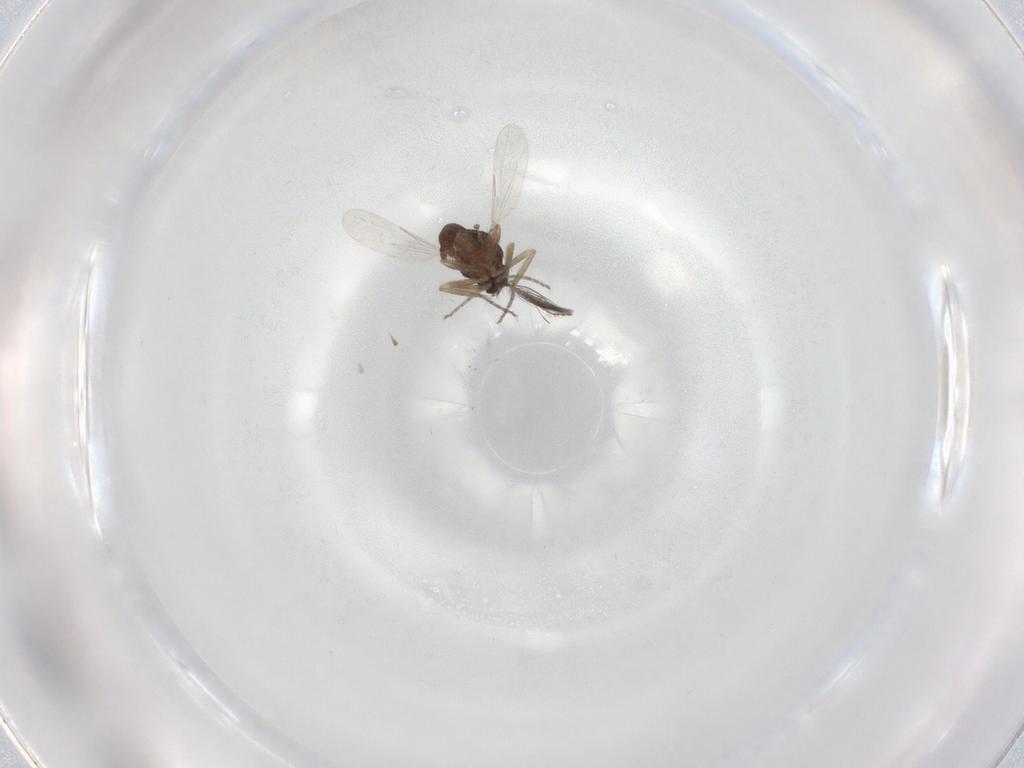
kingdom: Animalia
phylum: Arthropoda
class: Insecta
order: Diptera
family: Ceratopogonidae
